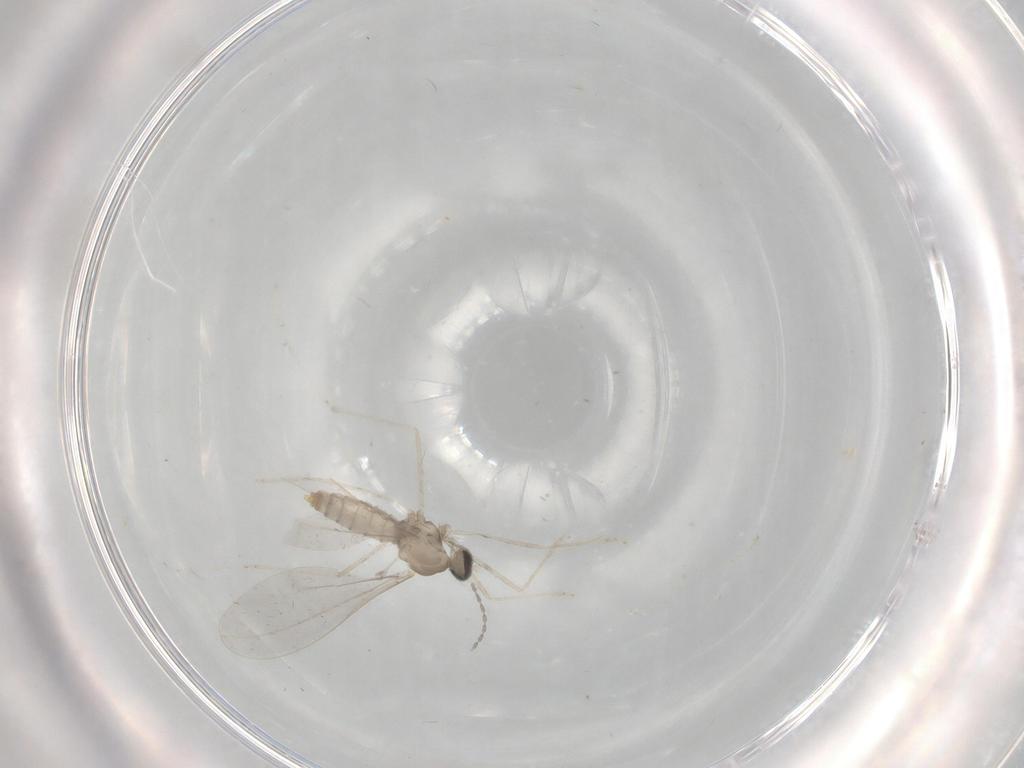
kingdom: Animalia
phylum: Arthropoda
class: Insecta
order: Diptera
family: Cecidomyiidae
